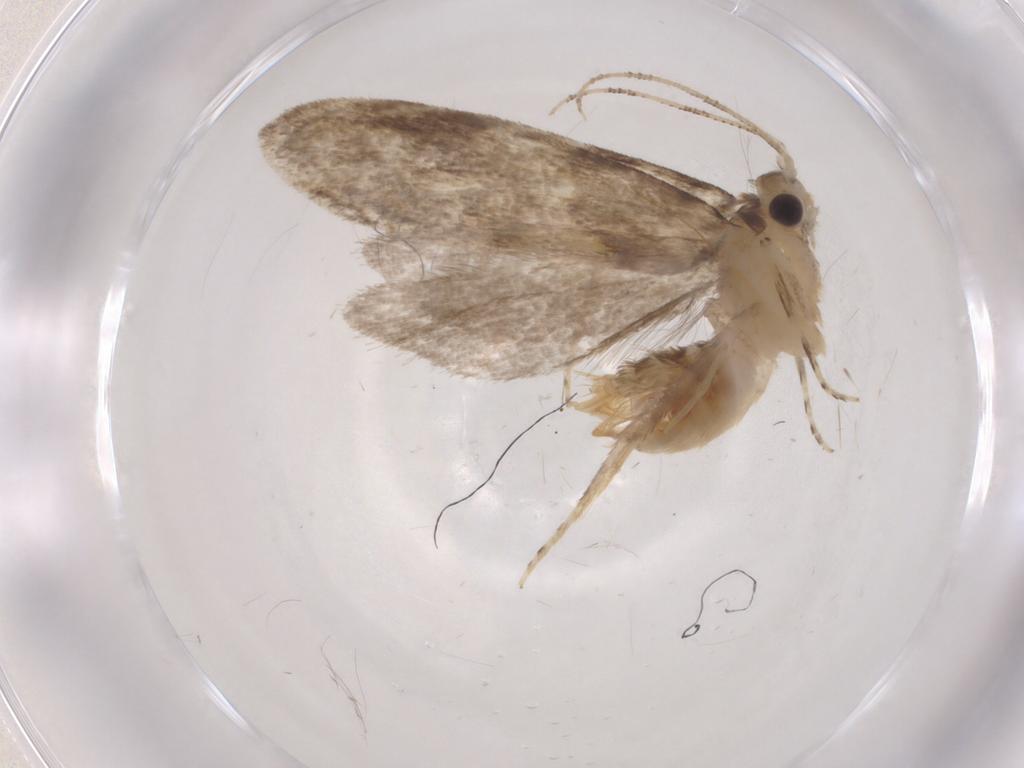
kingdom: Animalia
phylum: Arthropoda
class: Insecta
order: Lepidoptera
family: Tineidae
